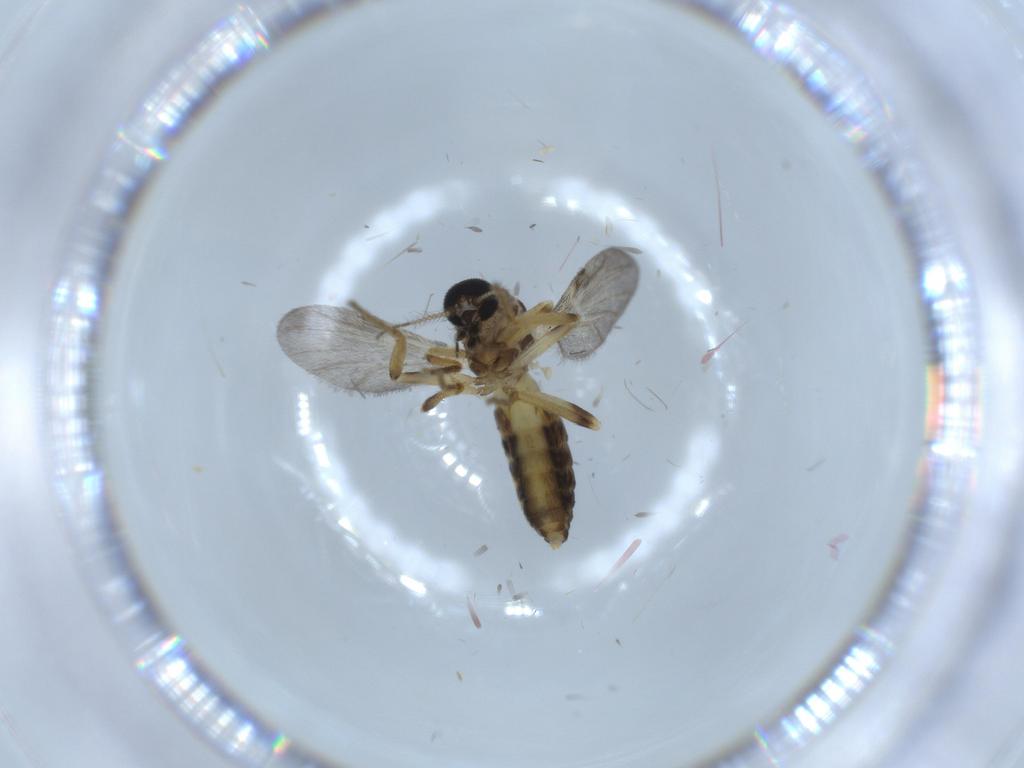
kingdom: Animalia
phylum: Arthropoda
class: Insecta
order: Diptera
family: Ceratopogonidae
